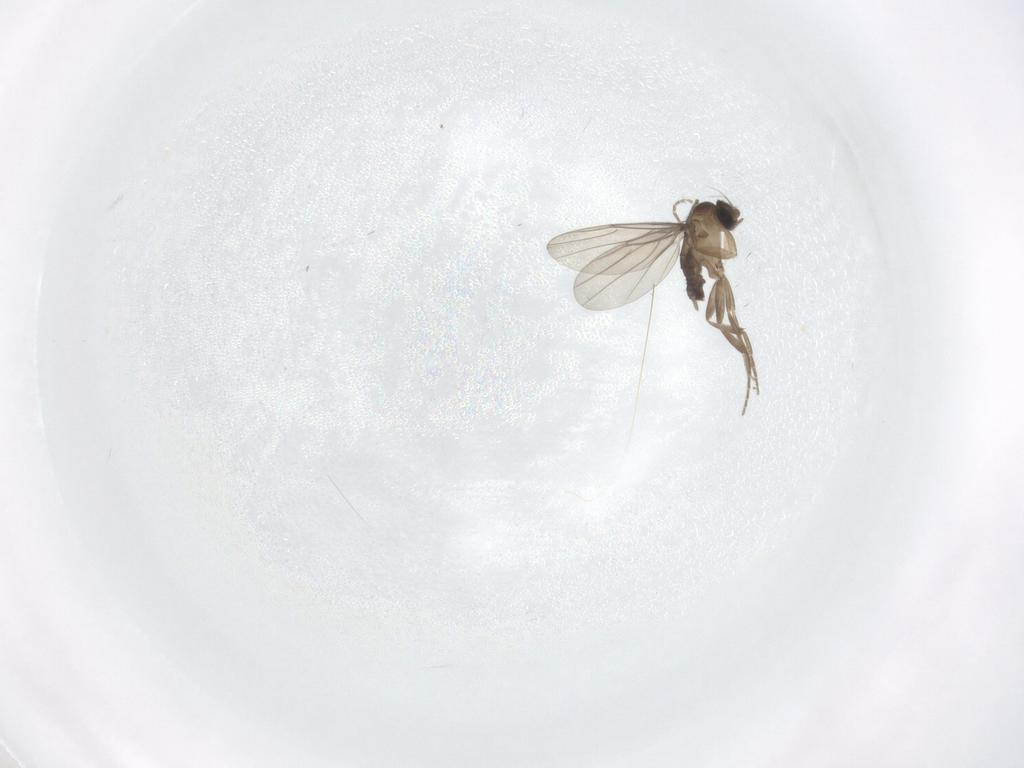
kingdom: Animalia
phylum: Arthropoda
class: Insecta
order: Diptera
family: Phoridae
